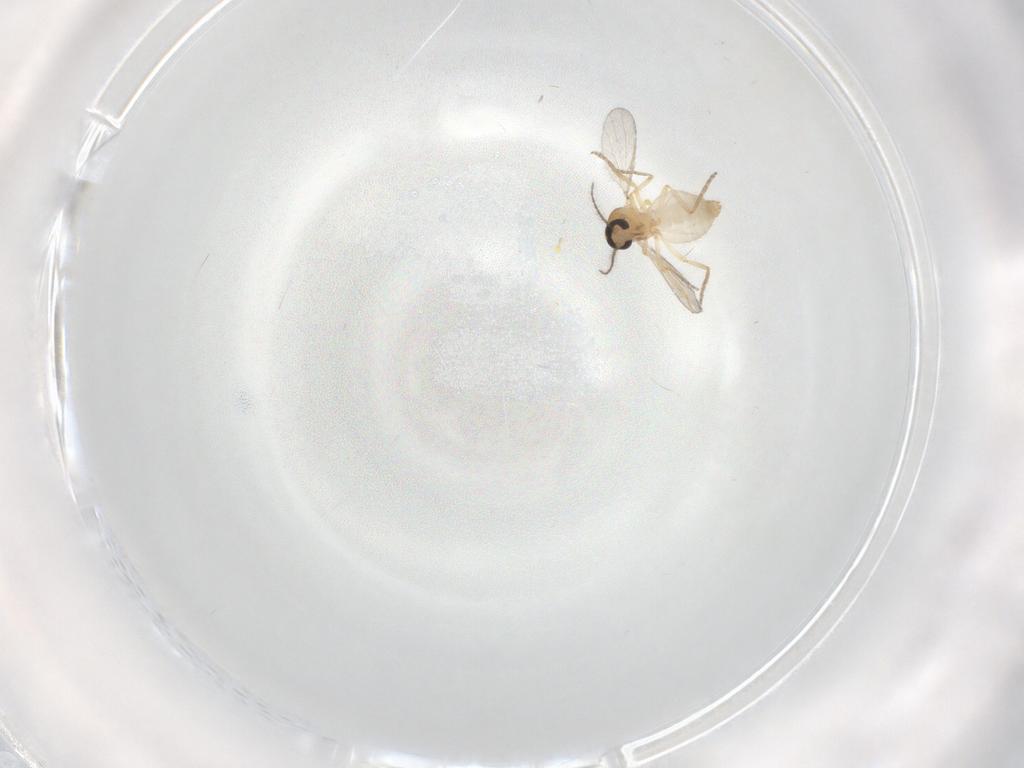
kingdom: Animalia
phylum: Arthropoda
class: Insecta
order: Diptera
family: Ceratopogonidae
